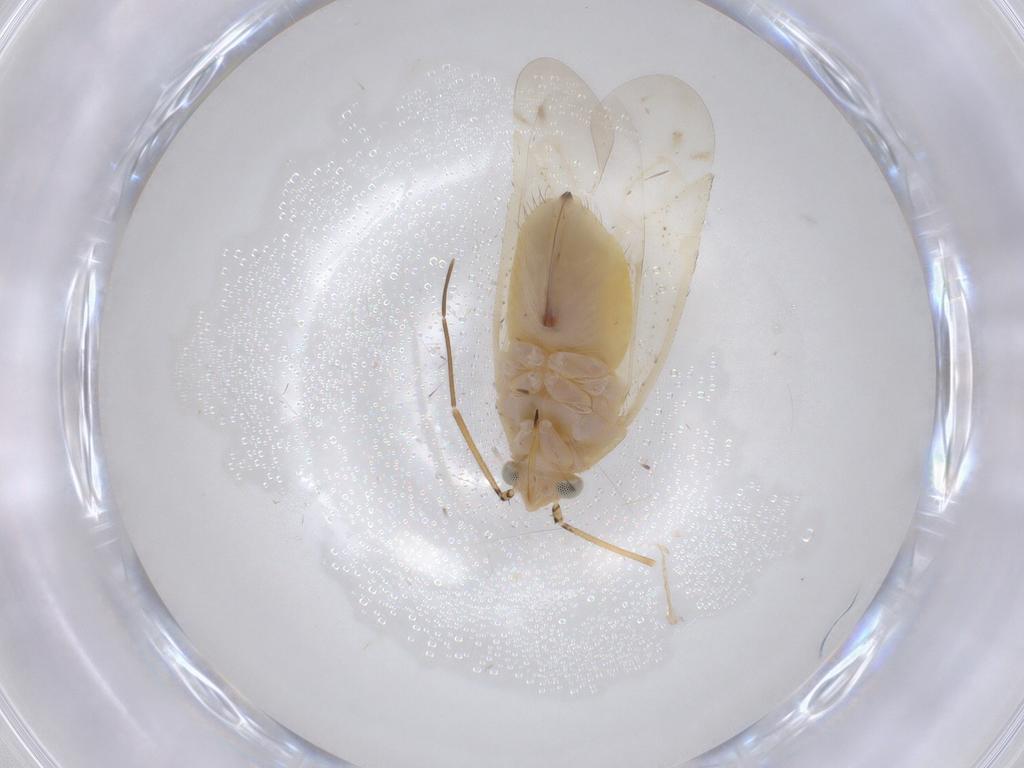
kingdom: Animalia
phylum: Arthropoda
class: Insecta
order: Hemiptera
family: Miridae
